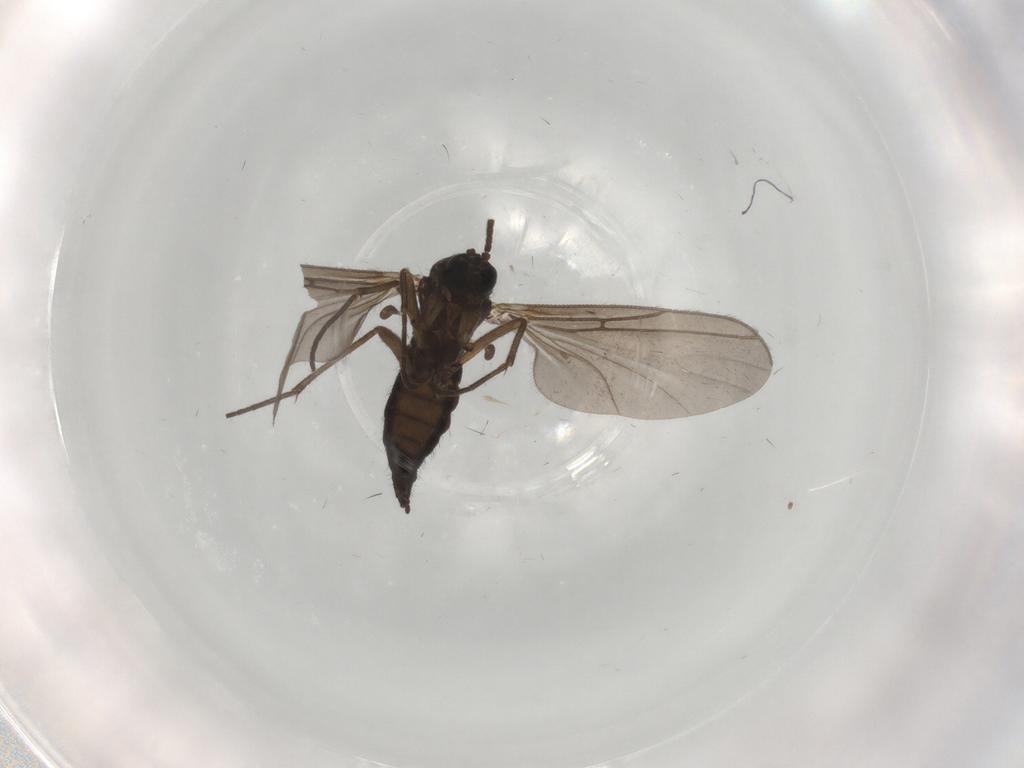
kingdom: Animalia
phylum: Arthropoda
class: Insecta
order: Diptera
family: Sciaridae
